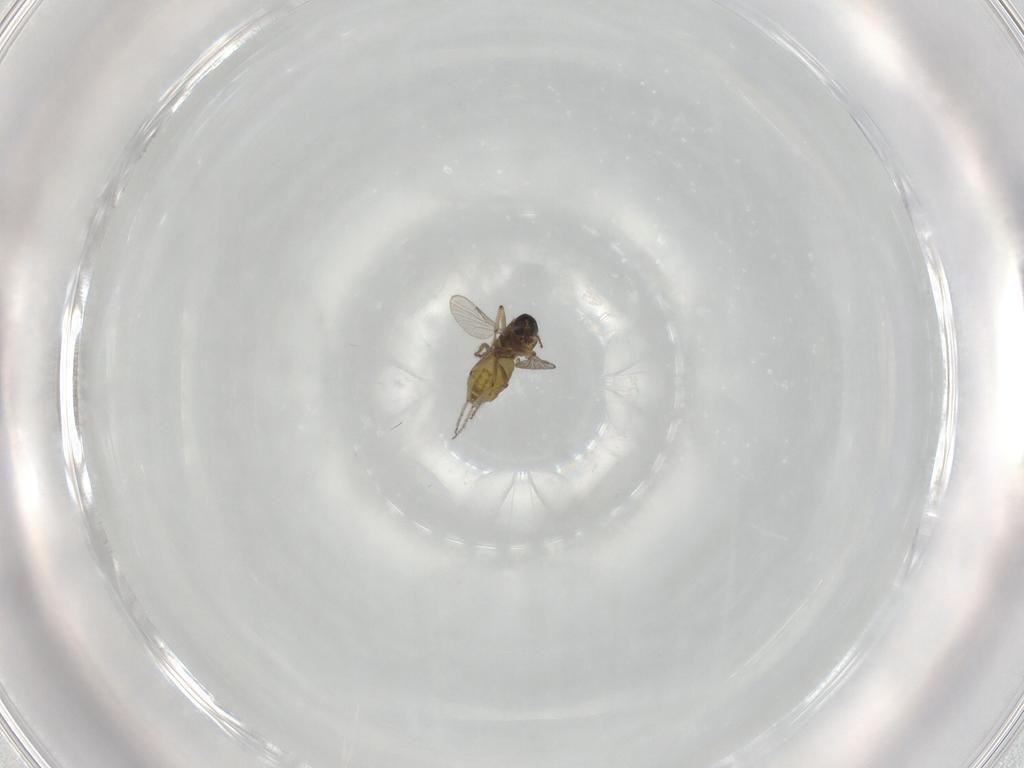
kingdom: Animalia
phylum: Arthropoda
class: Insecta
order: Diptera
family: Ceratopogonidae
